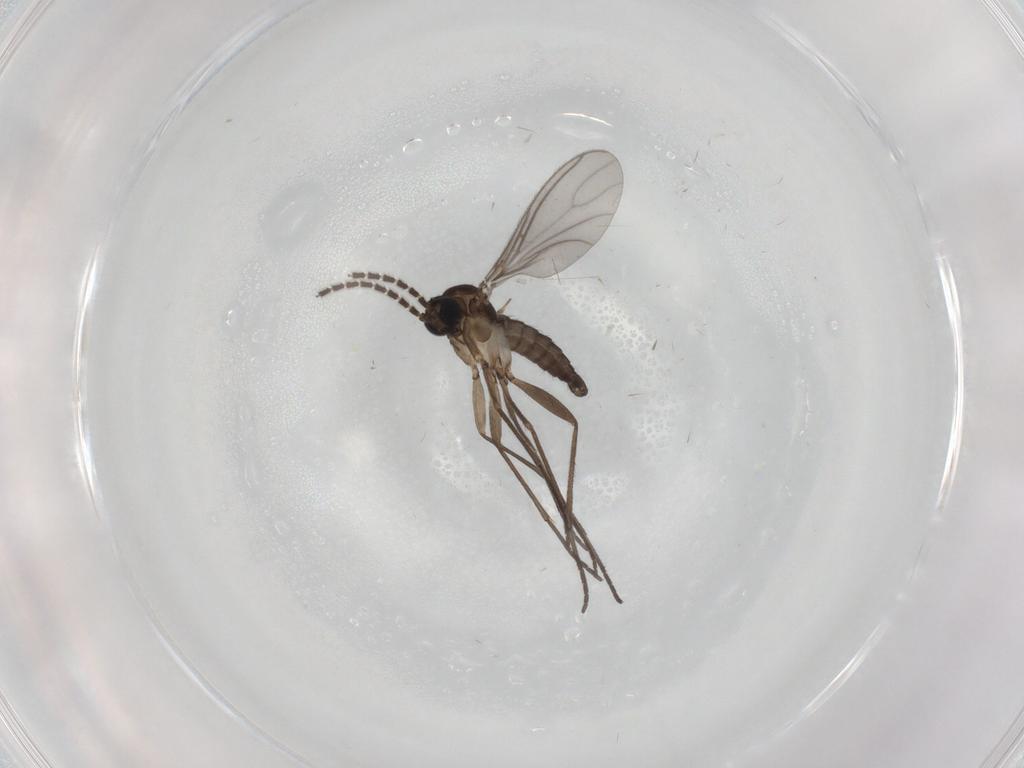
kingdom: Animalia
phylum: Arthropoda
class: Insecta
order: Diptera
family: Sciaridae
